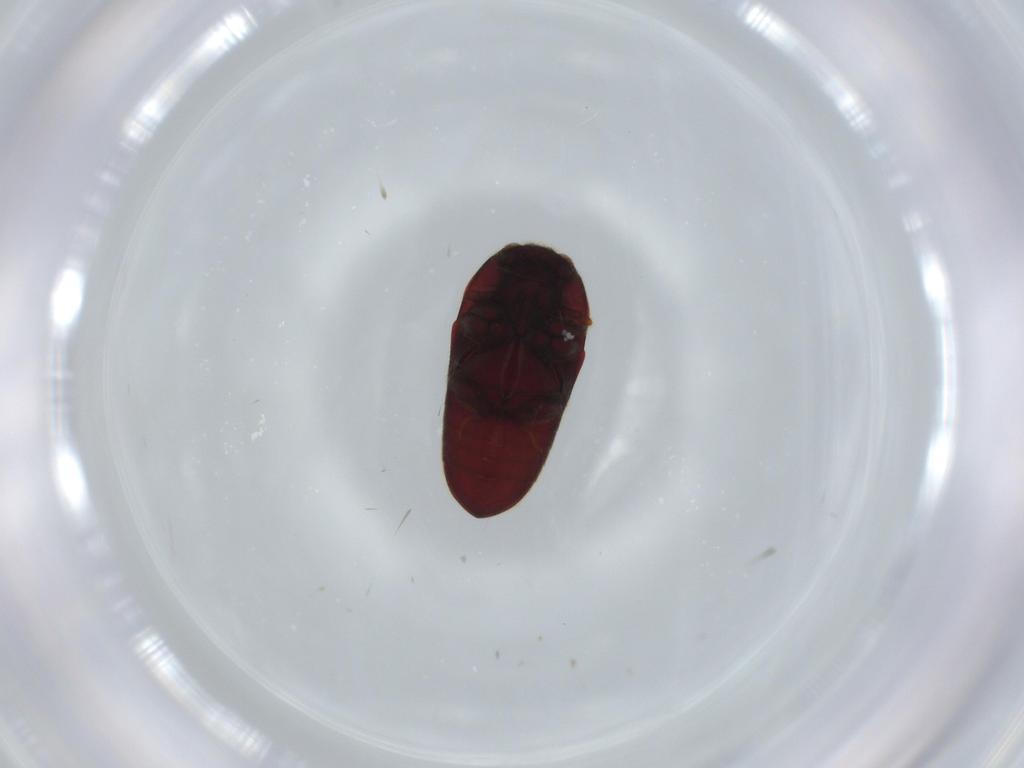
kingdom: Animalia
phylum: Arthropoda
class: Insecta
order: Coleoptera
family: Throscidae
